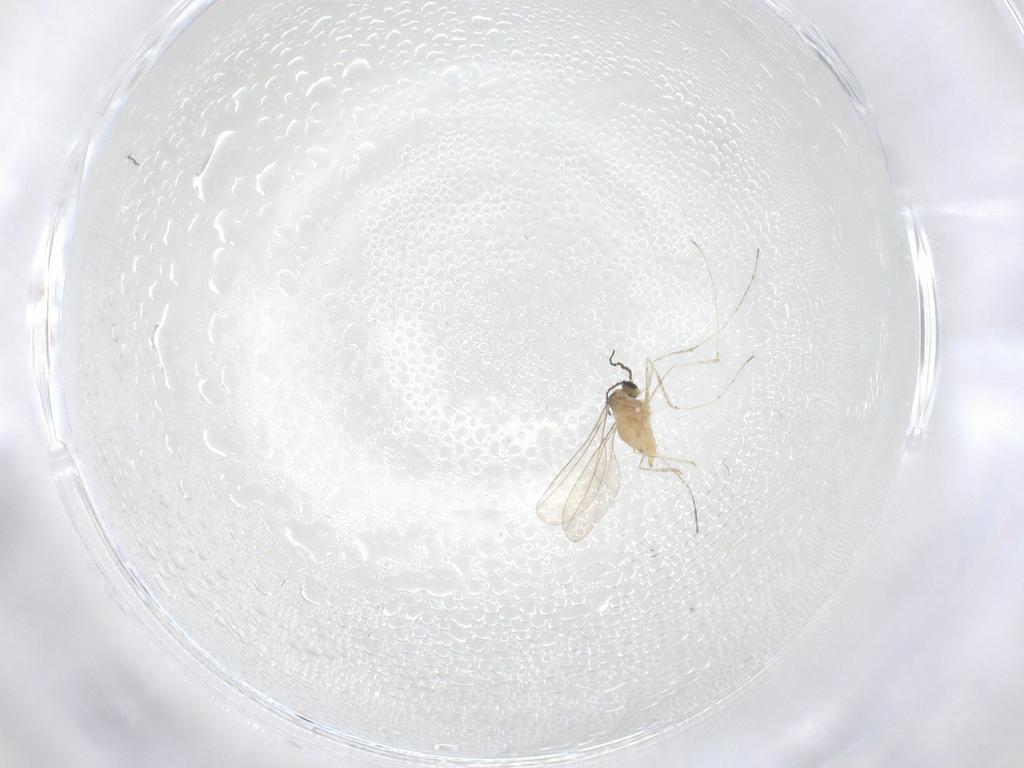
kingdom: Animalia
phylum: Arthropoda
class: Insecta
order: Diptera
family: Cecidomyiidae
